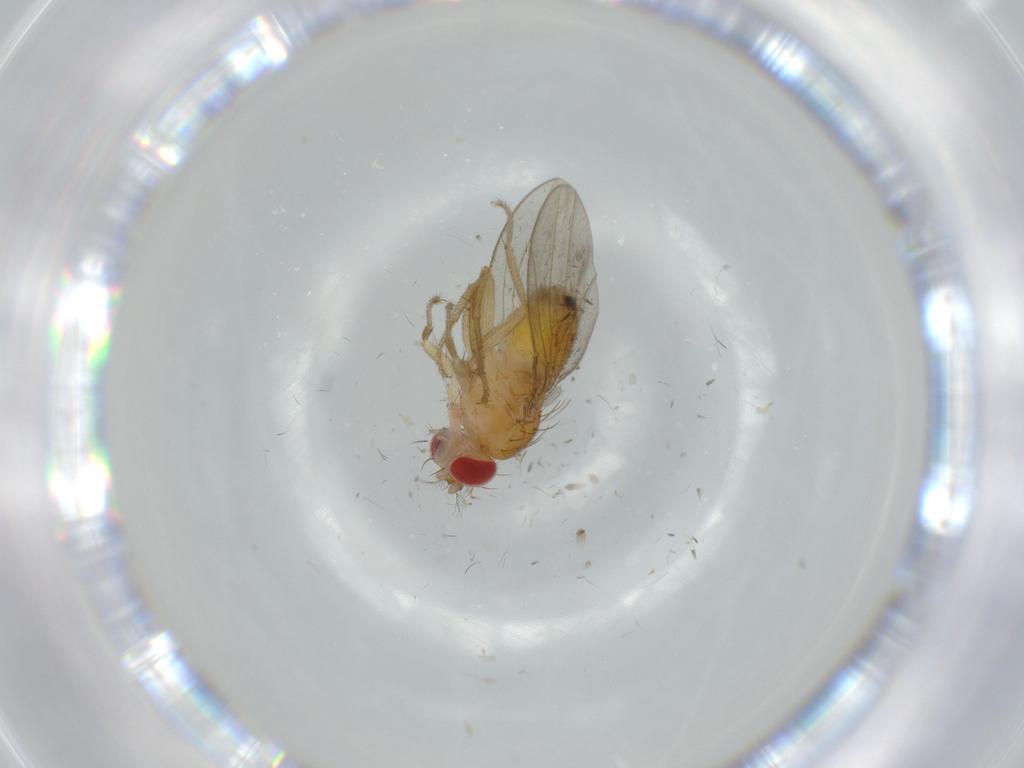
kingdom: Animalia
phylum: Arthropoda
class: Insecta
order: Diptera
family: Drosophilidae
